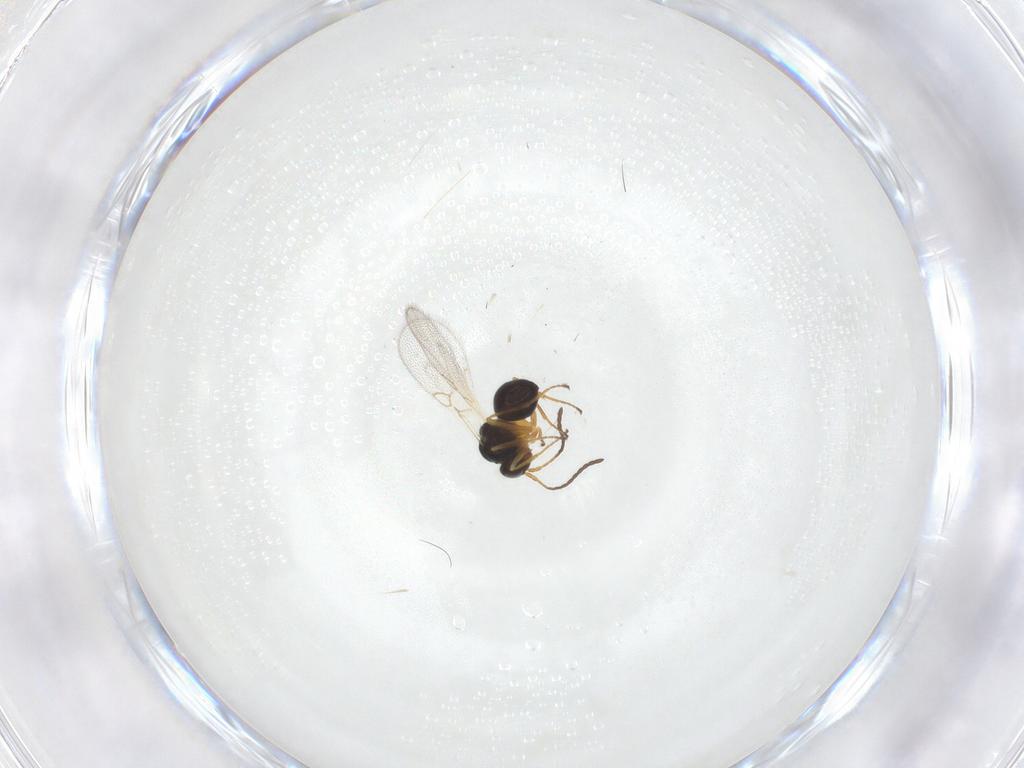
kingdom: Animalia
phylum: Arthropoda
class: Insecta
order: Hymenoptera
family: Figitidae
